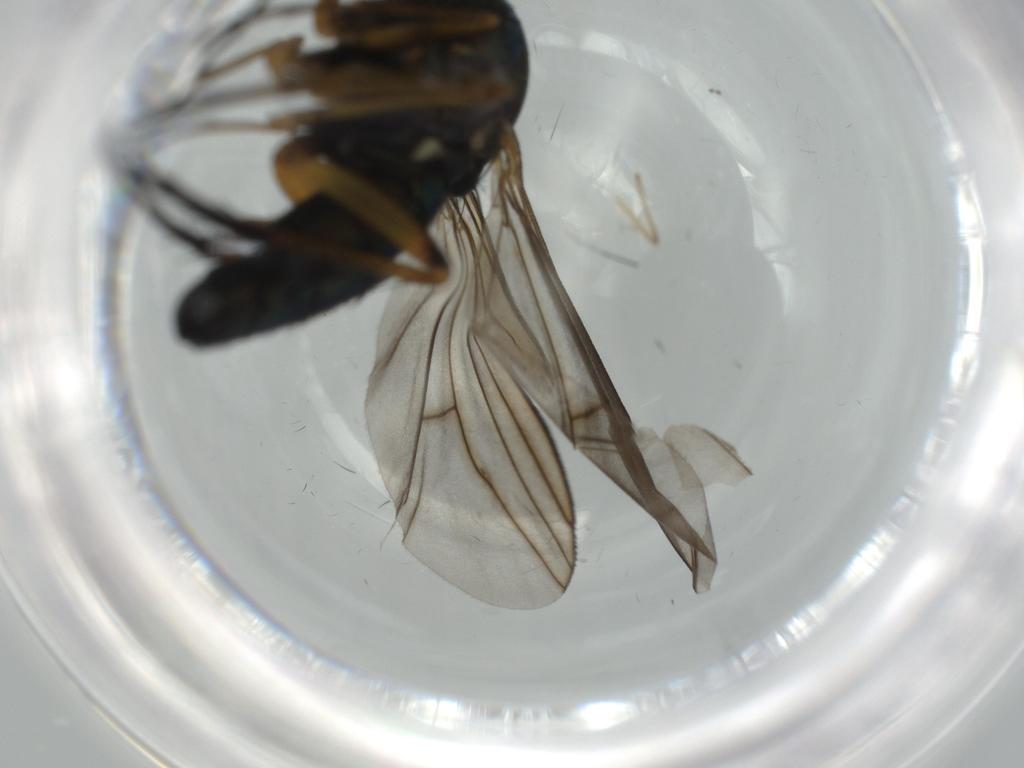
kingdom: Animalia
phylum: Arthropoda
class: Insecta
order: Diptera
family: Dolichopodidae
